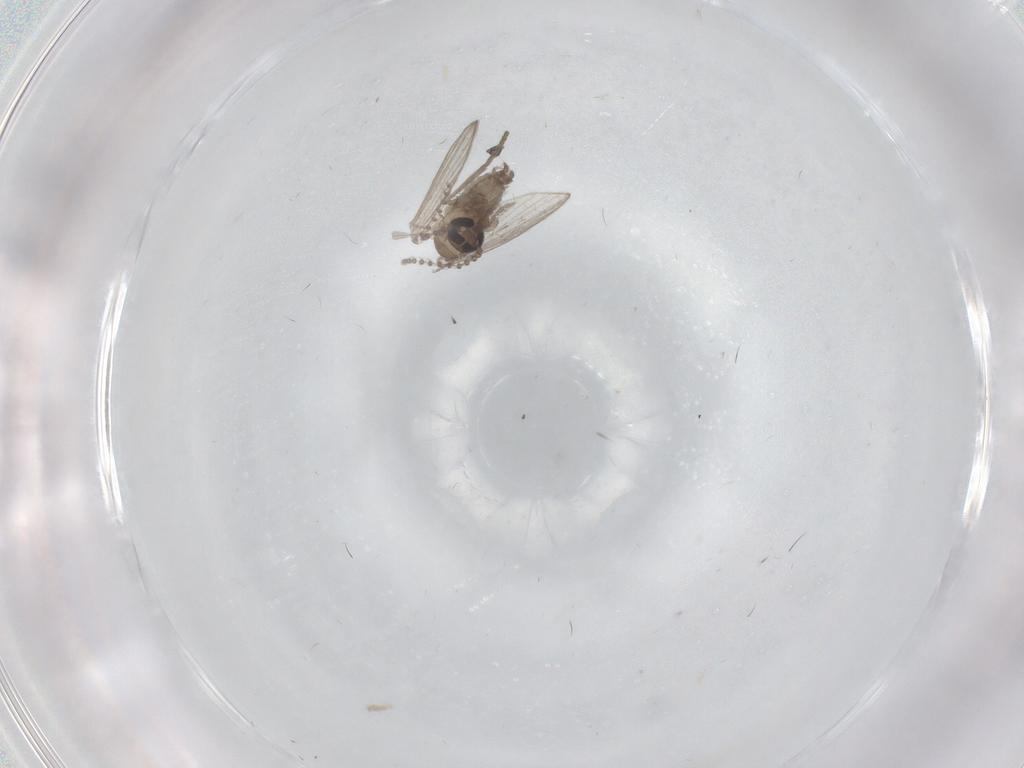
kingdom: Animalia
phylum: Arthropoda
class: Insecta
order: Diptera
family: Psychodidae
